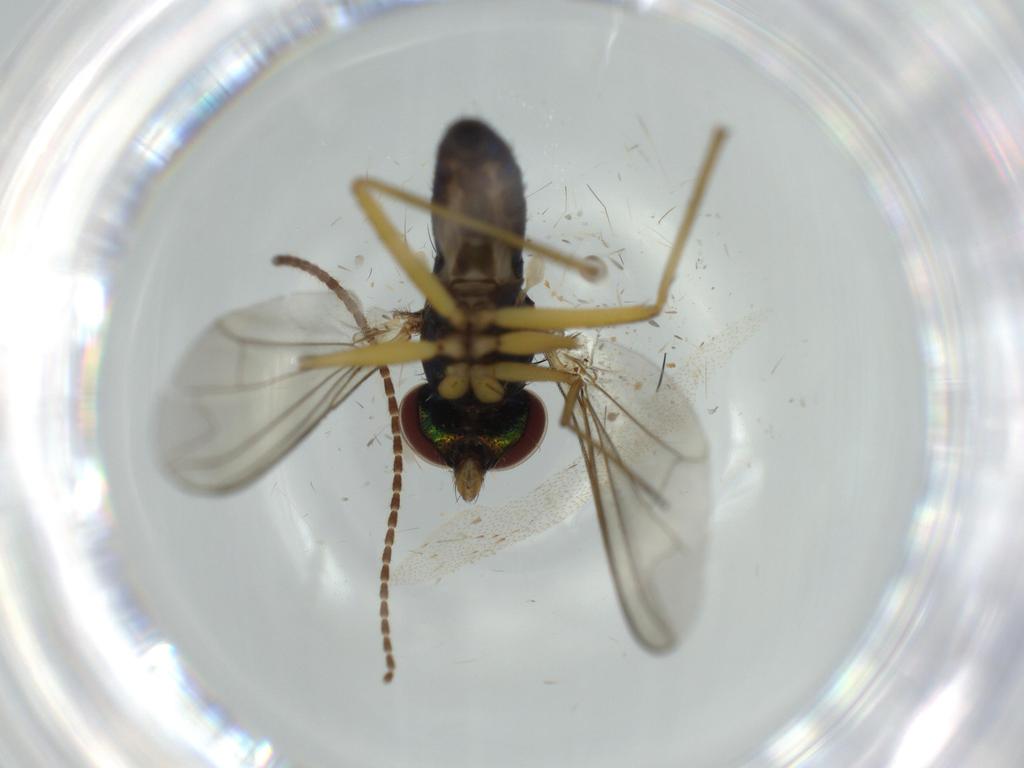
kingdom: Animalia
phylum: Arthropoda
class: Insecta
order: Diptera
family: Dolichopodidae
